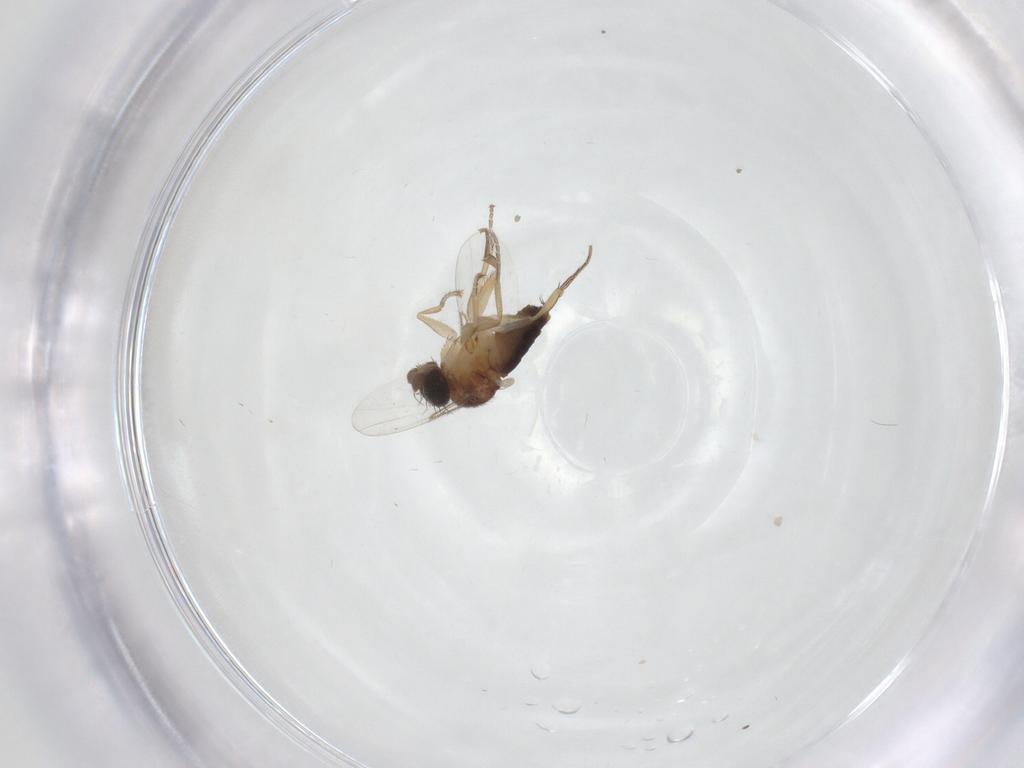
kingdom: Animalia
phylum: Arthropoda
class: Insecta
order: Diptera
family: Phoridae
